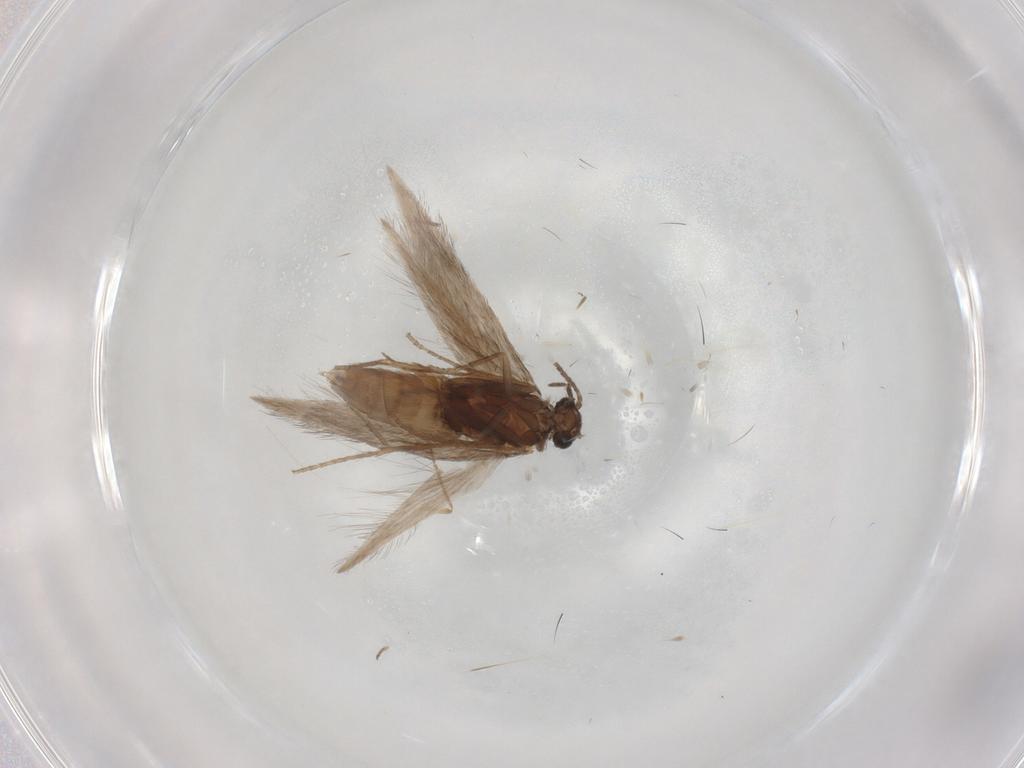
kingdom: Animalia
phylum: Arthropoda
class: Insecta
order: Trichoptera
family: Hydroptilidae
